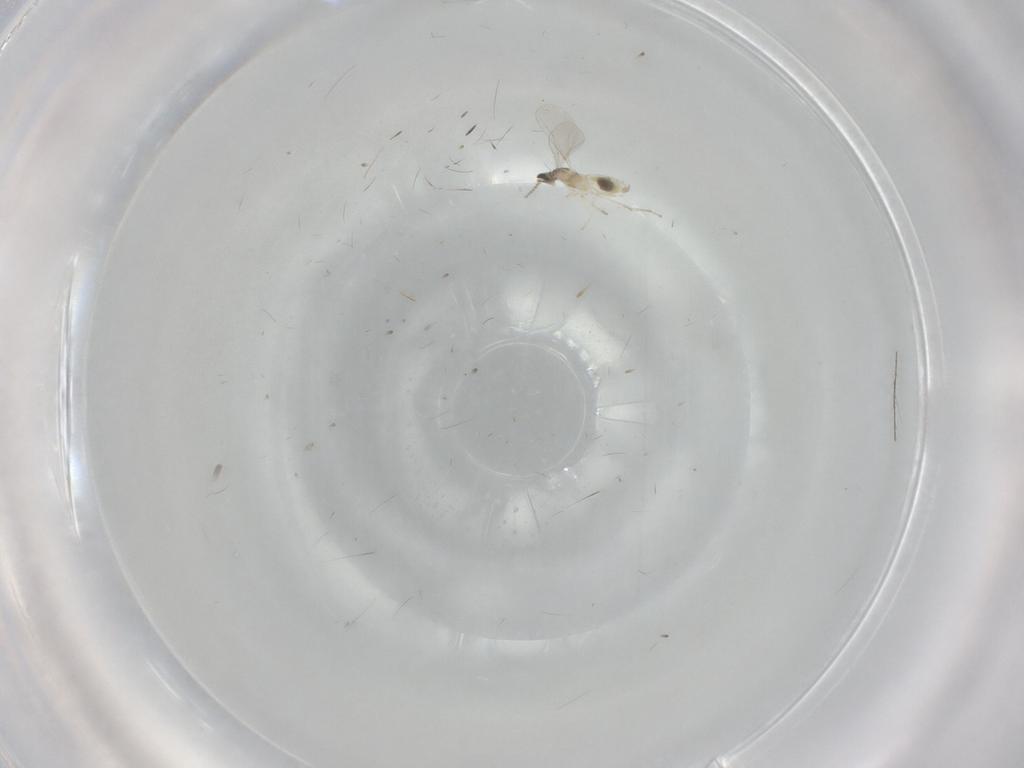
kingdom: Animalia
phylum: Arthropoda
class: Insecta
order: Diptera
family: Cecidomyiidae
